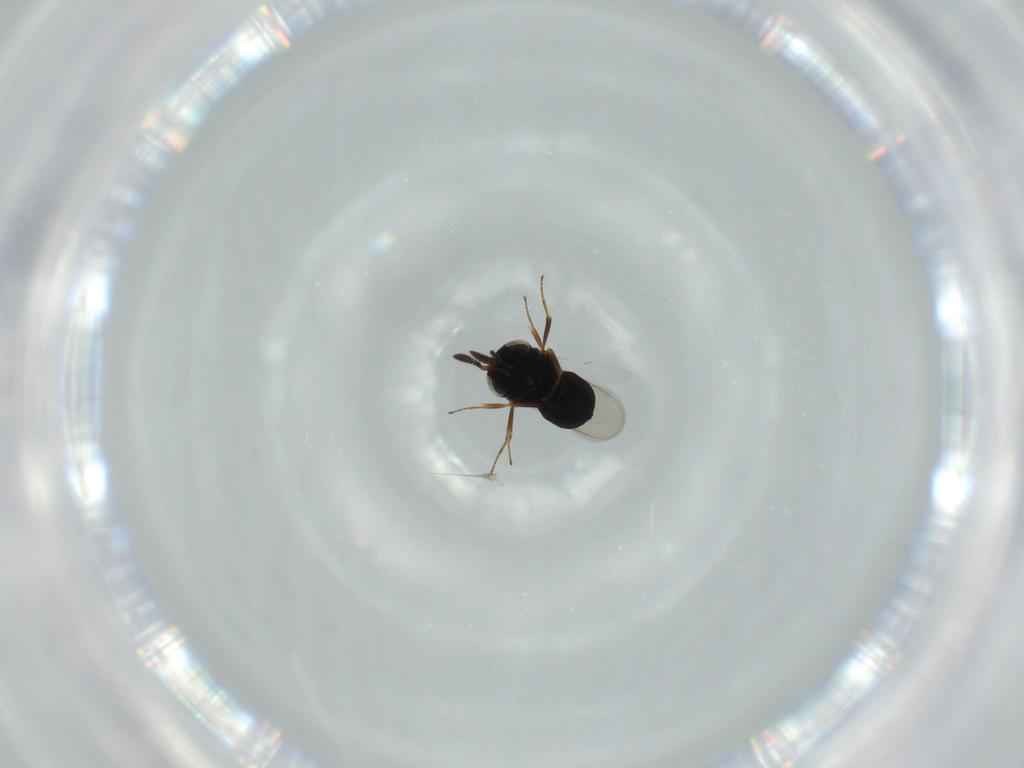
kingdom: Animalia
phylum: Arthropoda
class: Insecta
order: Hymenoptera
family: Scelionidae
